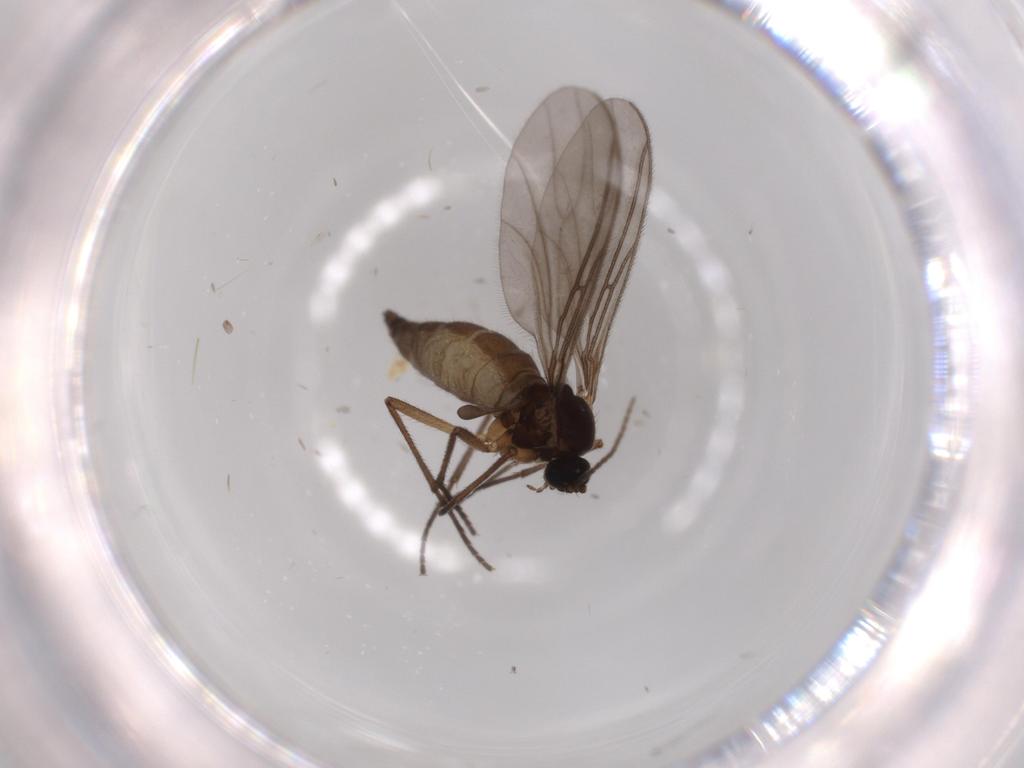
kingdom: Animalia
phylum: Arthropoda
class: Insecta
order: Diptera
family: Sciaridae
